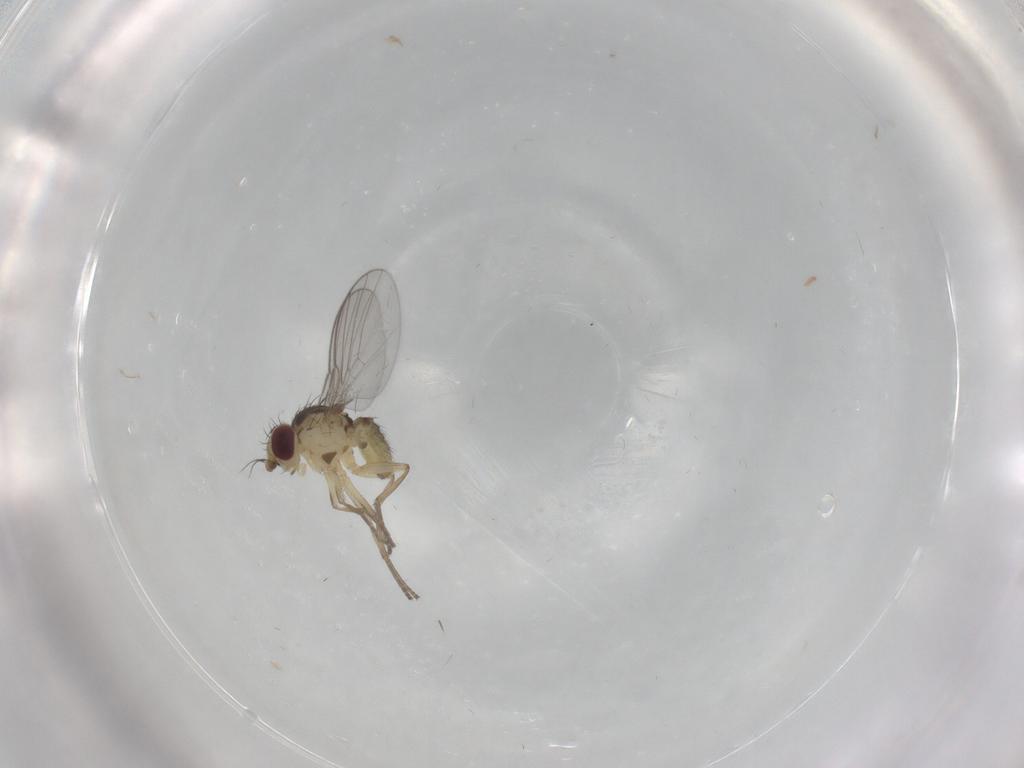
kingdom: Animalia
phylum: Arthropoda
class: Insecta
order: Diptera
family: Agromyzidae
